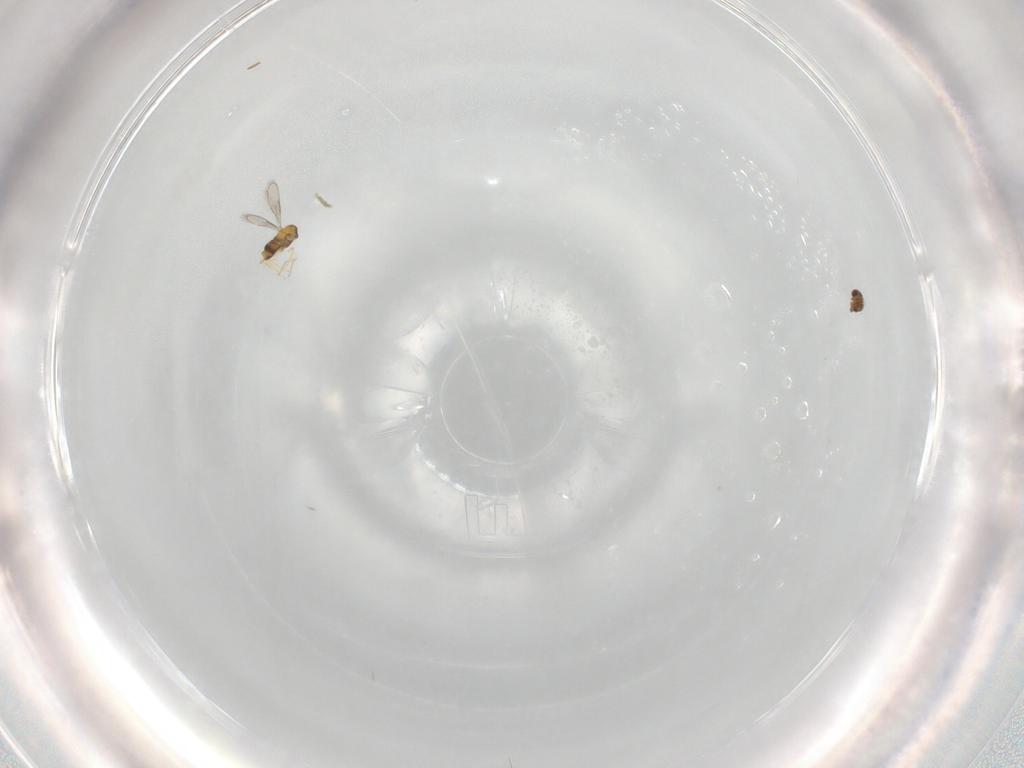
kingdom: Animalia
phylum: Arthropoda
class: Insecta
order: Hymenoptera
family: Aphelinidae
